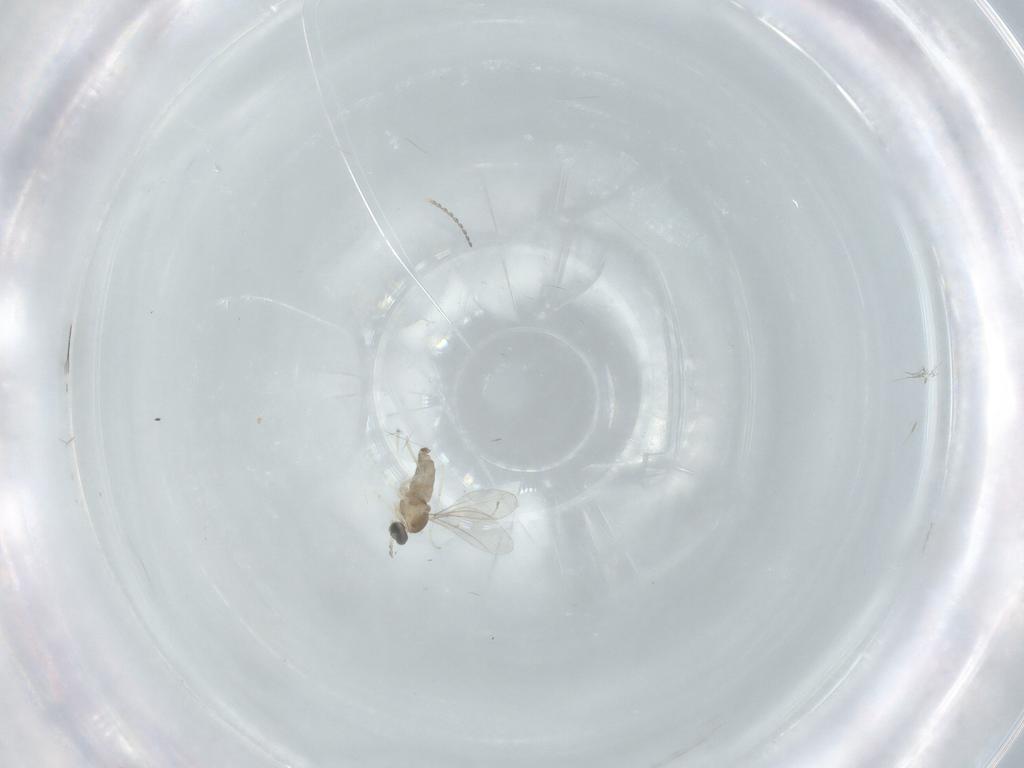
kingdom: Animalia
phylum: Arthropoda
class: Insecta
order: Diptera
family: Cecidomyiidae
